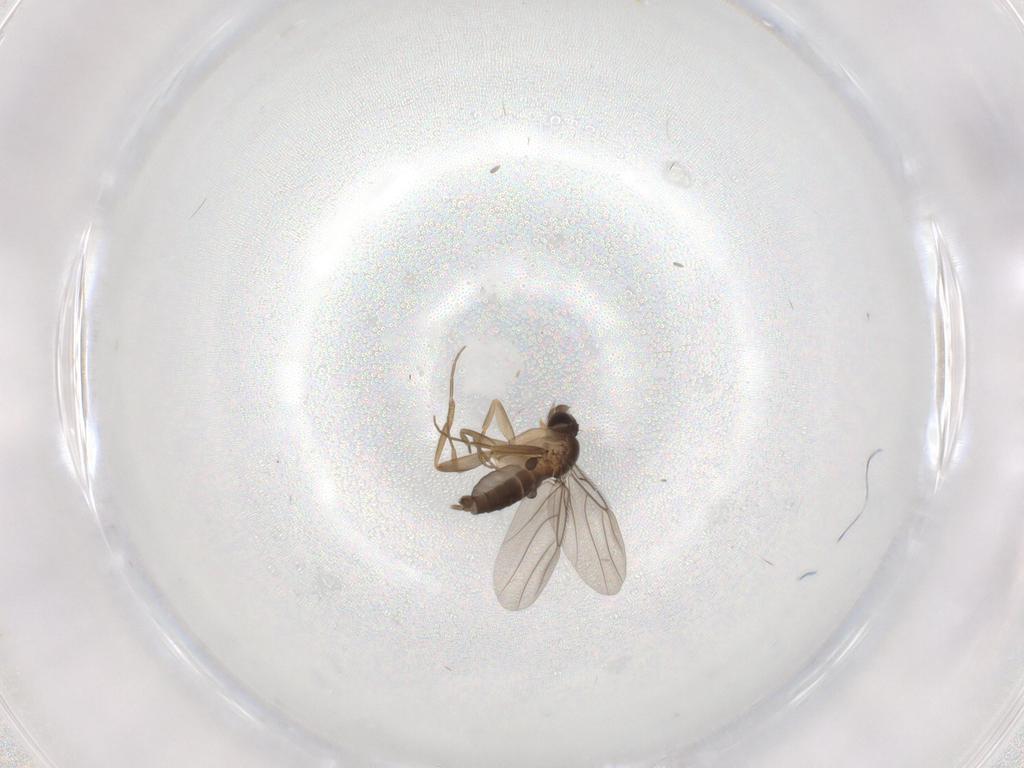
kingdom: Animalia
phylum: Arthropoda
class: Insecta
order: Diptera
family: Phoridae
